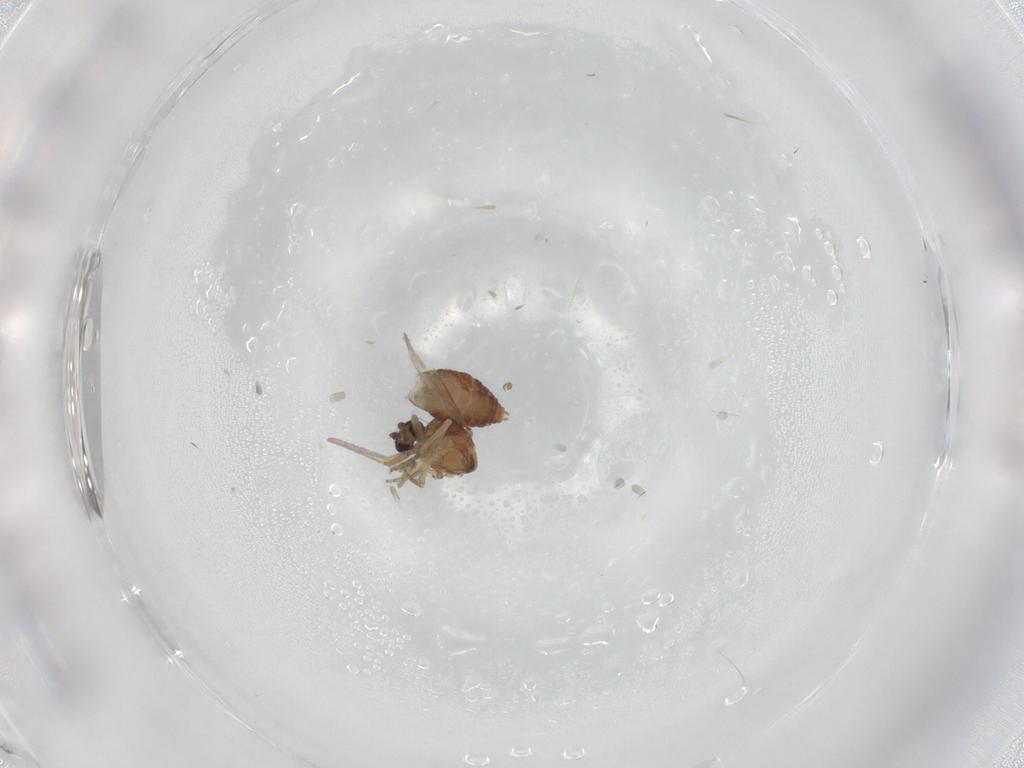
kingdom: Animalia
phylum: Arthropoda
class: Insecta
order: Diptera
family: Ceratopogonidae
